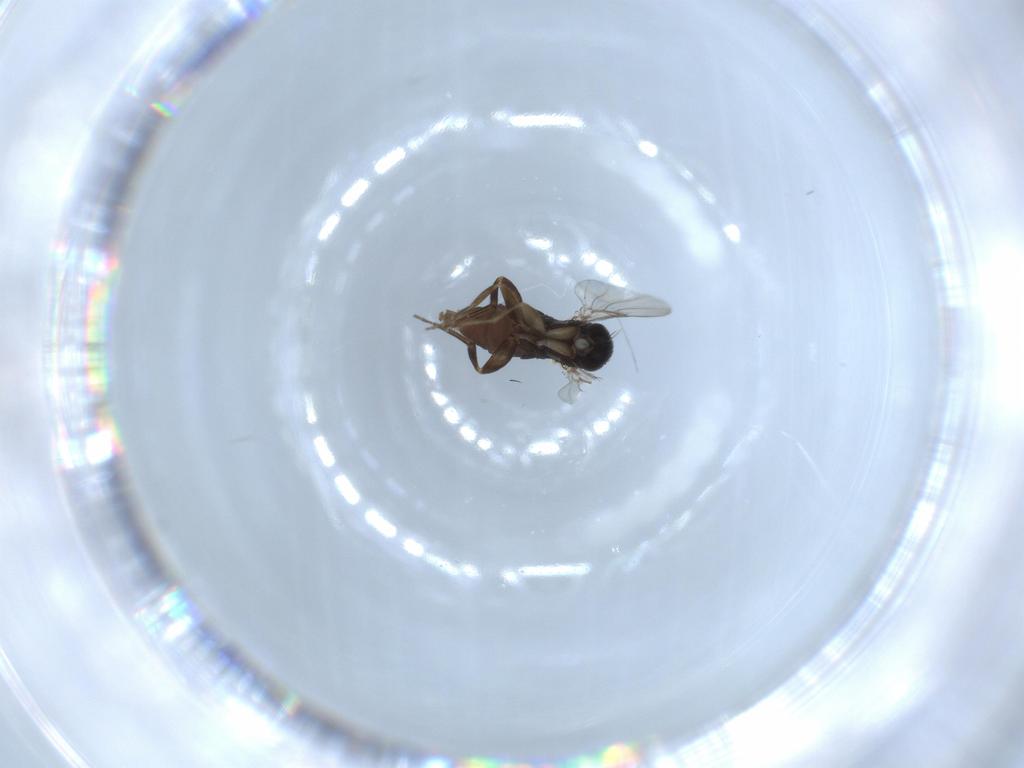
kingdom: Animalia
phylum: Arthropoda
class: Insecta
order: Diptera
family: Phoridae
